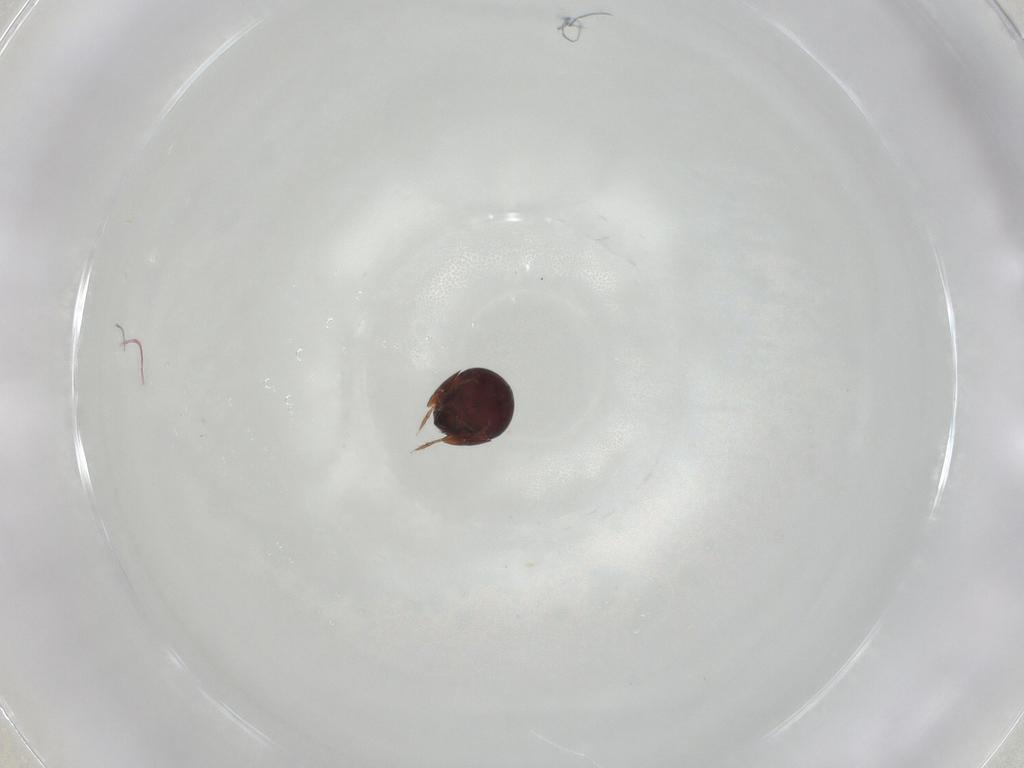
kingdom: Animalia
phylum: Arthropoda
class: Arachnida
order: Sarcoptiformes
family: Galumnidae
